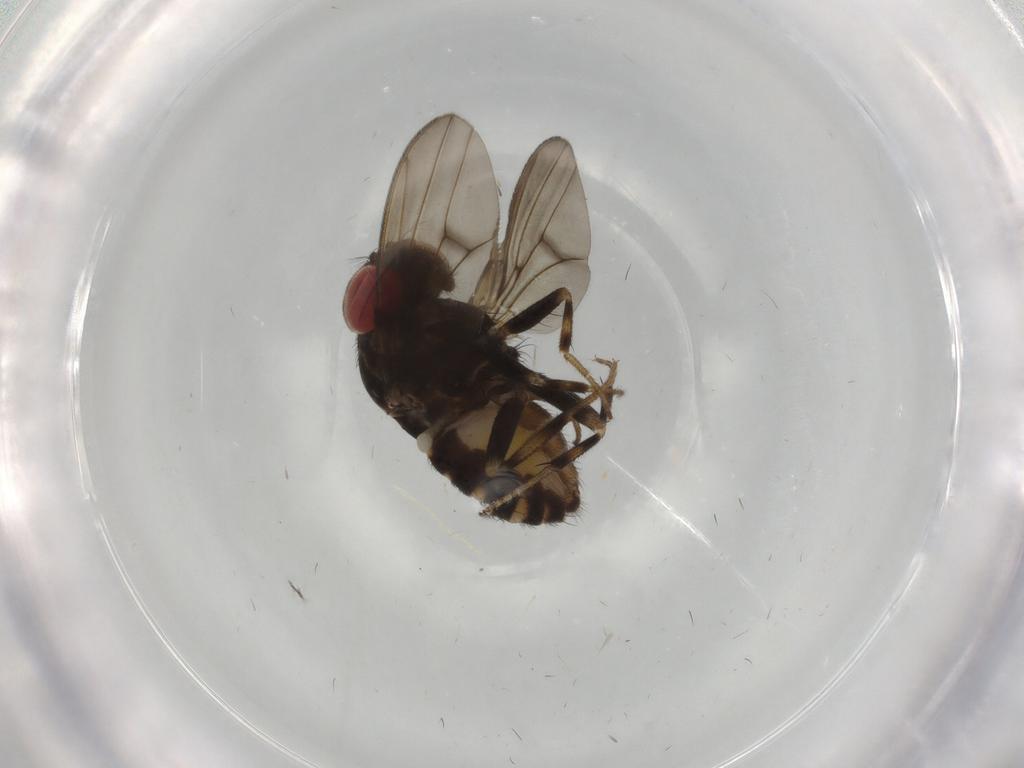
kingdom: Animalia
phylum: Arthropoda
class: Insecta
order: Diptera
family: Drosophilidae
